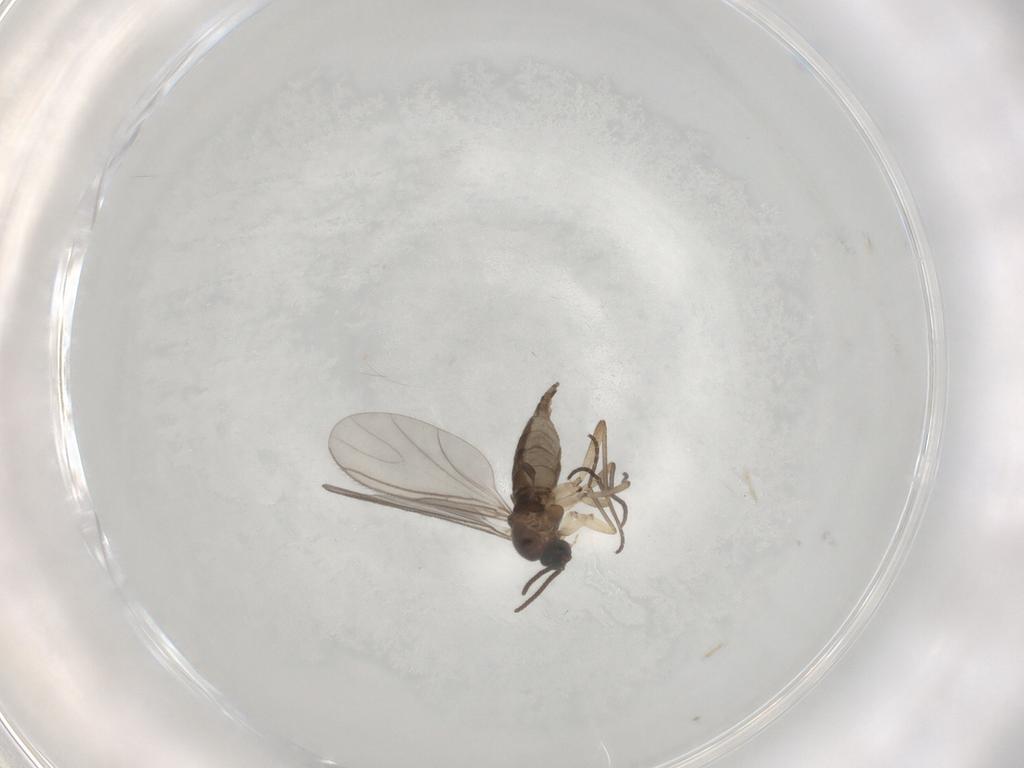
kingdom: Animalia
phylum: Arthropoda
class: Insecta
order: Diptera
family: Sciaridae
